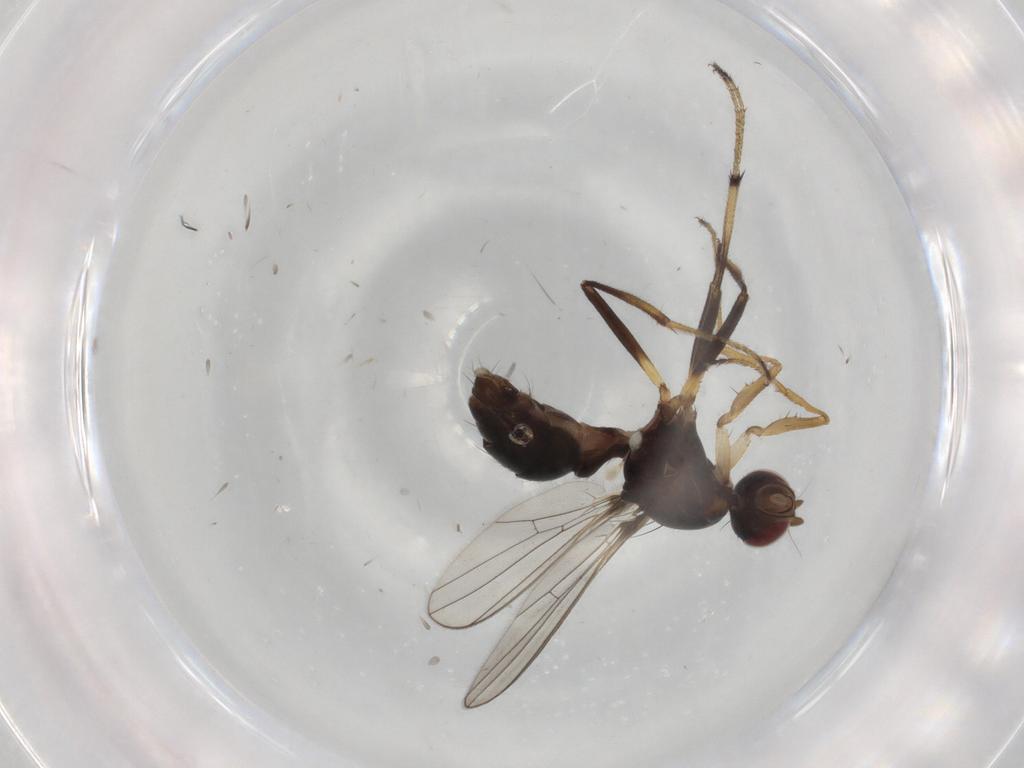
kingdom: Animalia
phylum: Arthropoda
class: Insecta
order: Diptera
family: Sepsidae
